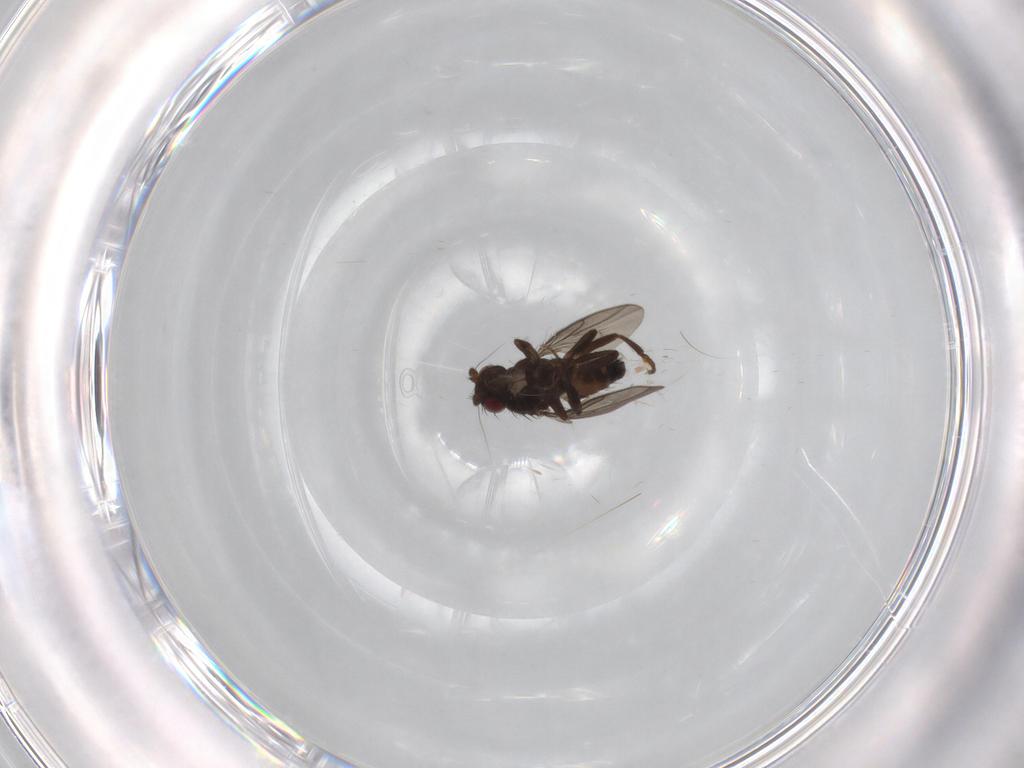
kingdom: Animalia
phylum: Arthropoda
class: Insecta
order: Diptera
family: Sphaeroceridae
